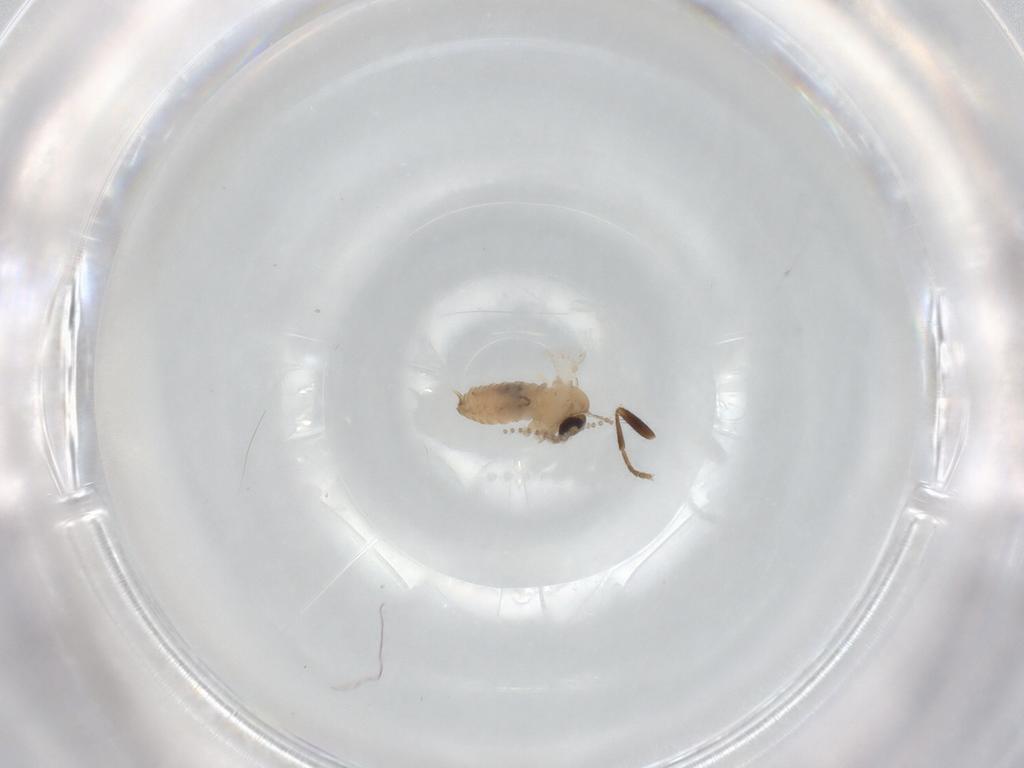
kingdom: Animalia
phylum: Arthropoda
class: Insecta
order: Diptera
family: Psychodidae
